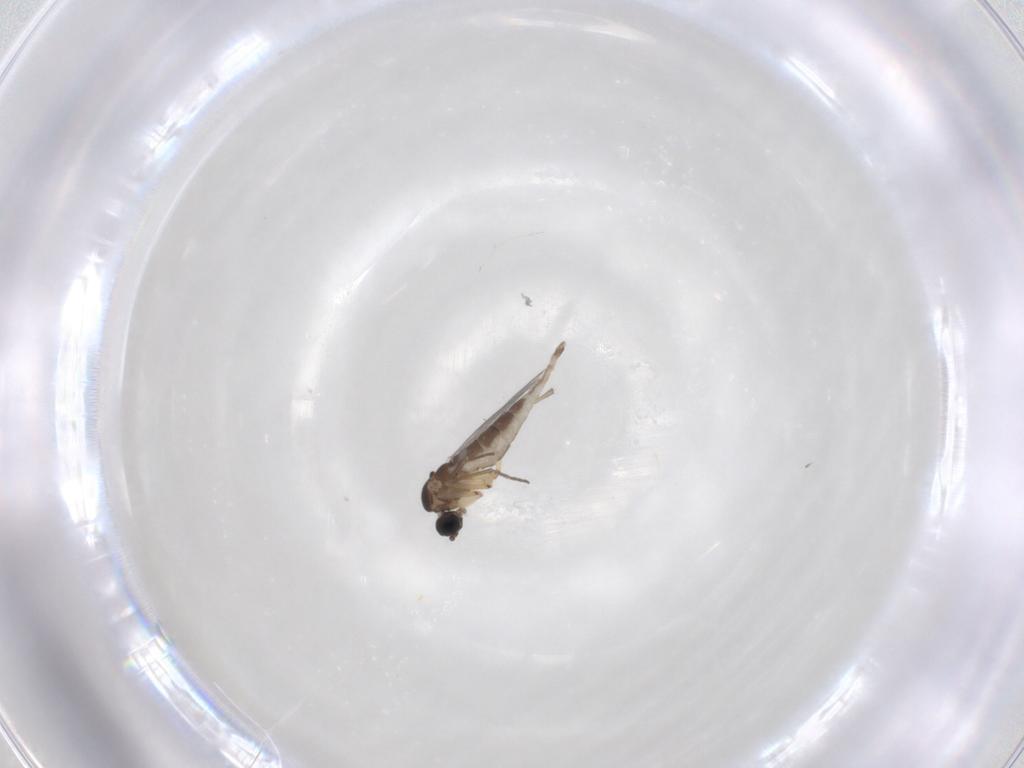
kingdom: Animalia
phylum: Arthropoda
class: Insecta
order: Diptera
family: Sciaridae
